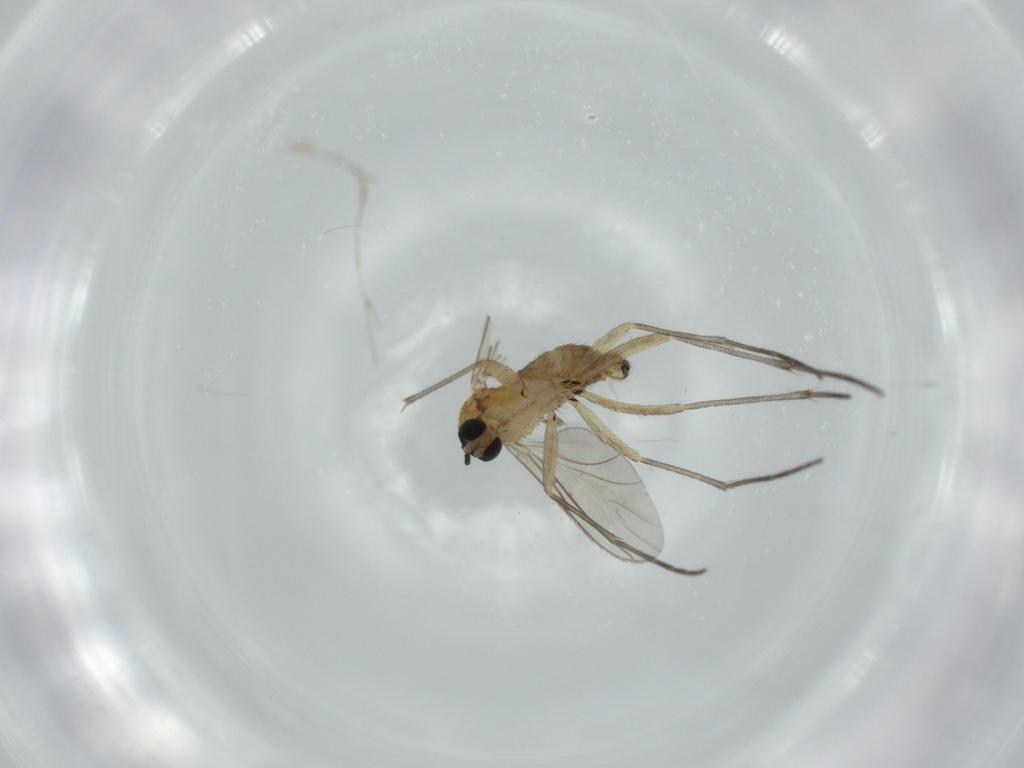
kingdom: Animalia
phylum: Arthropoda
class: Insecta
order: Diptera
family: Sciaridae
